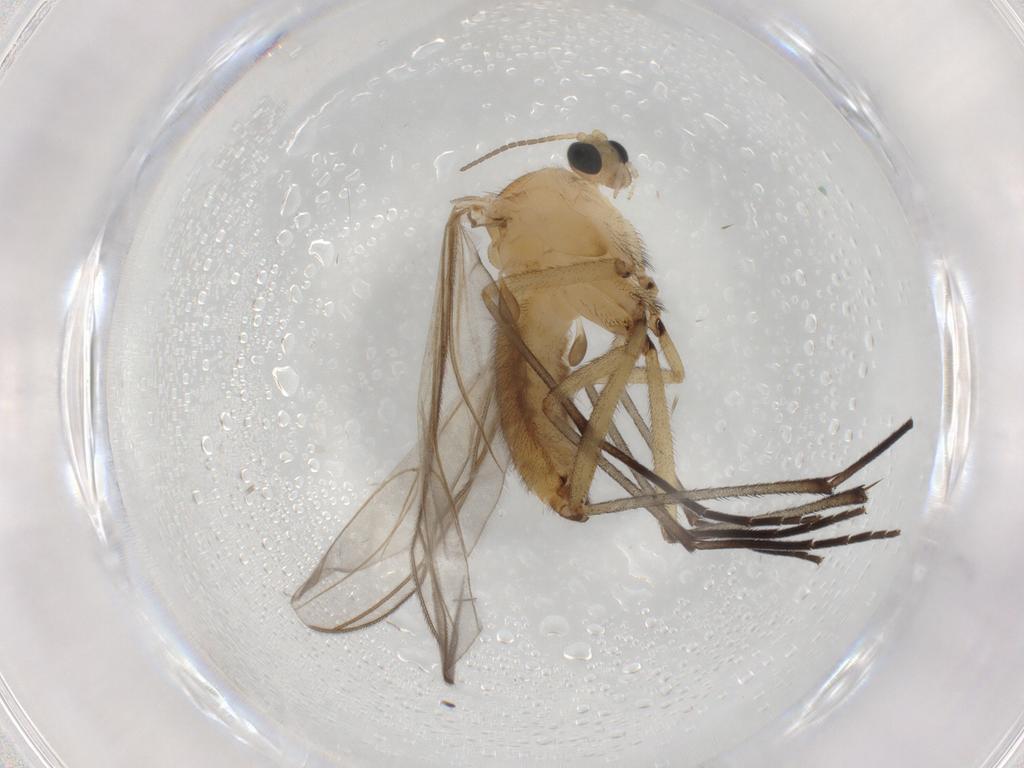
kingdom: Animalia
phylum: Arthropoda
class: Insecta
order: Diptera
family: Sciaridae
